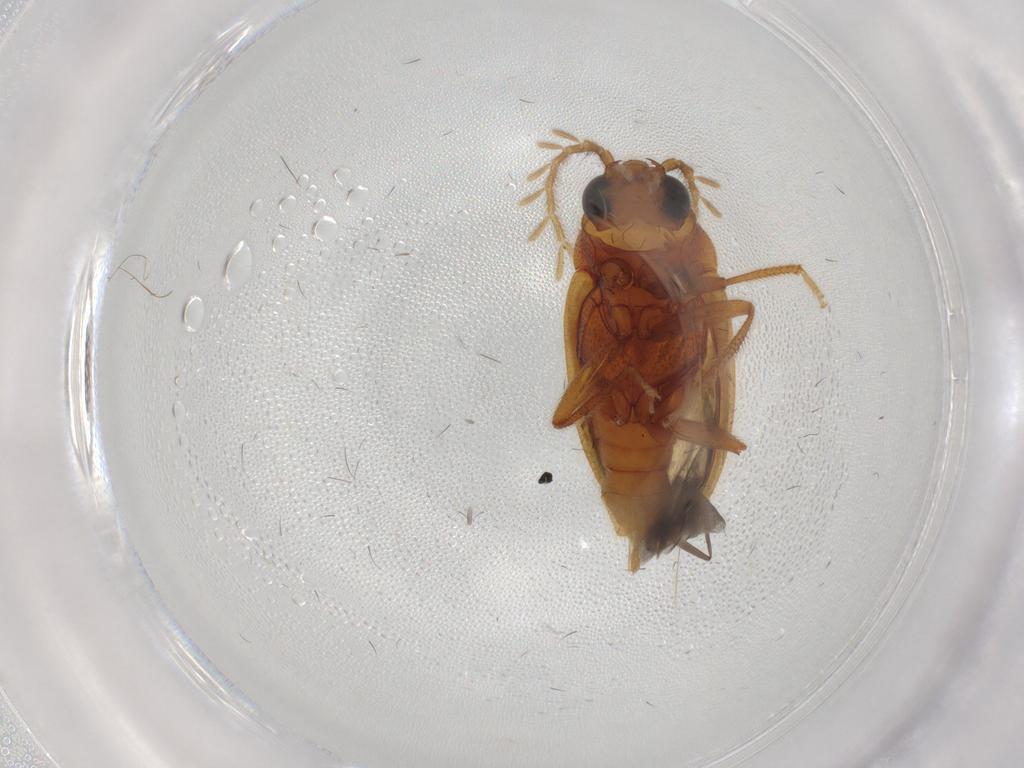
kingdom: Animalia
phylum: Arthropoda
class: Insecta
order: Coleoptera
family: Ptilodactylidae
